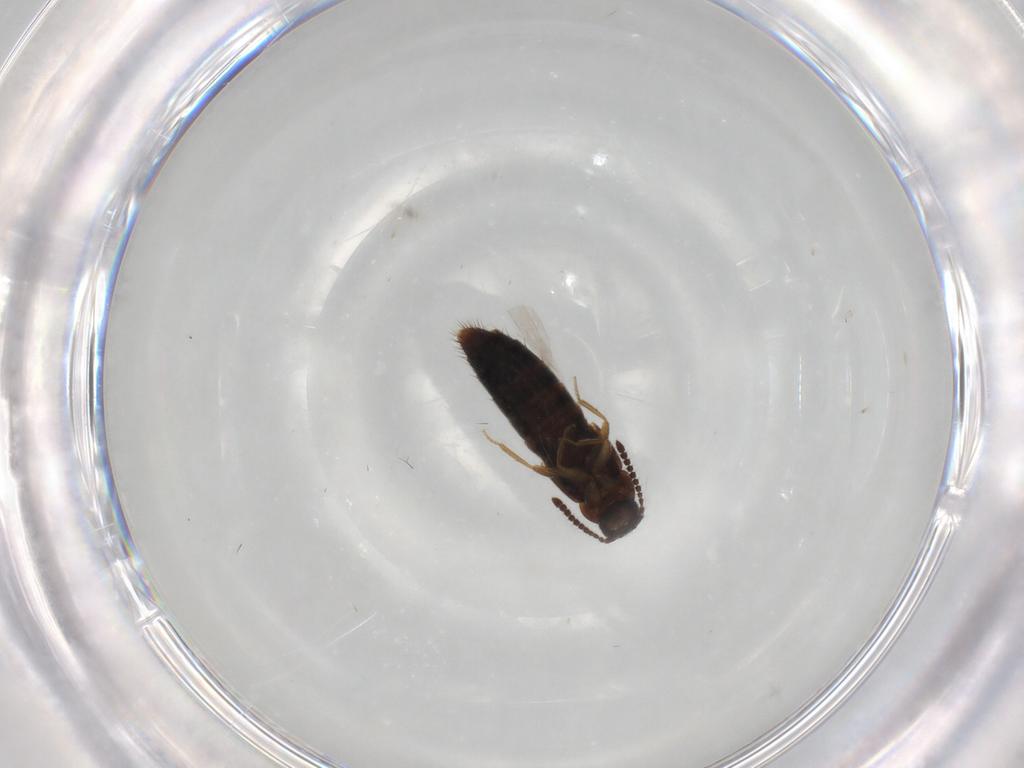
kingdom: Animalia
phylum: Arthropoda
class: Insecta
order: Coleoptera
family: Staphylinidae
